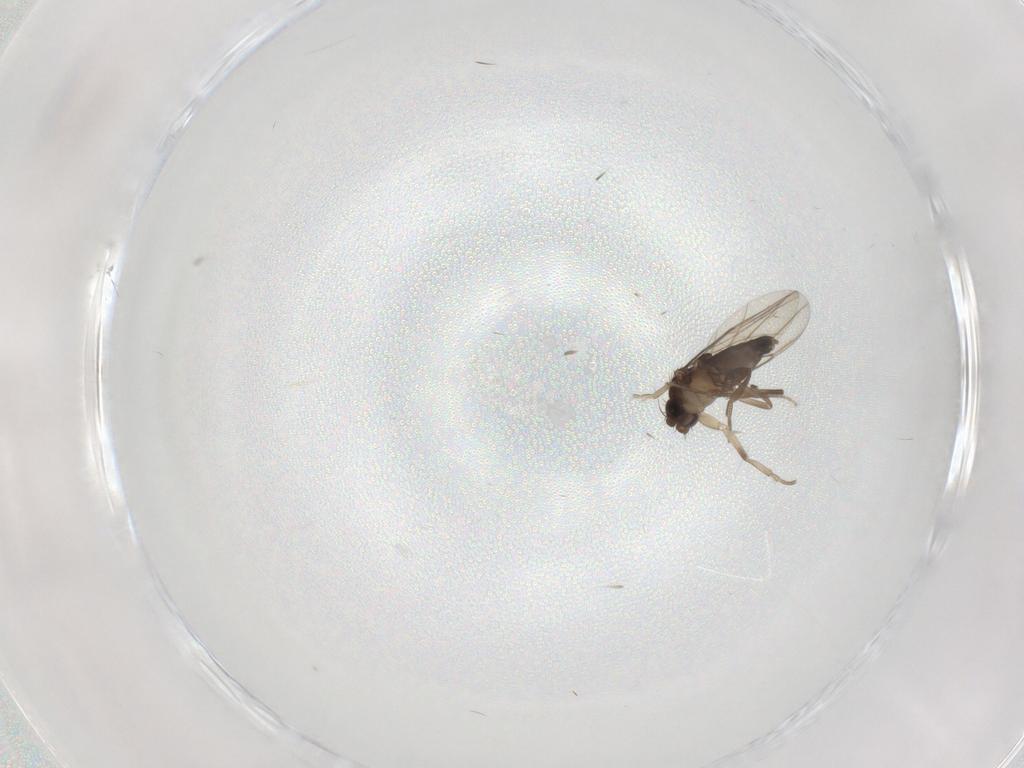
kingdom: Animalia
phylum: Arthropoda
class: Insecta
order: Diptera
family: Sciaridae
